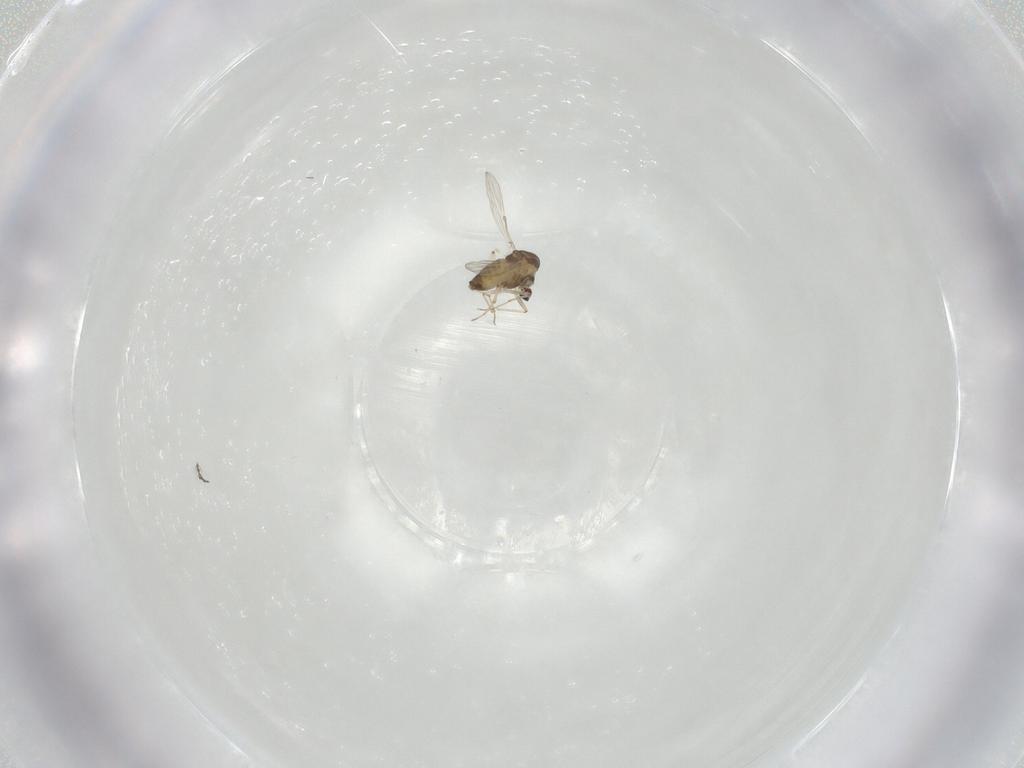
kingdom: Animalia
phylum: Arthropoda
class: Insecta
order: Diptera
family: Chironomidae
